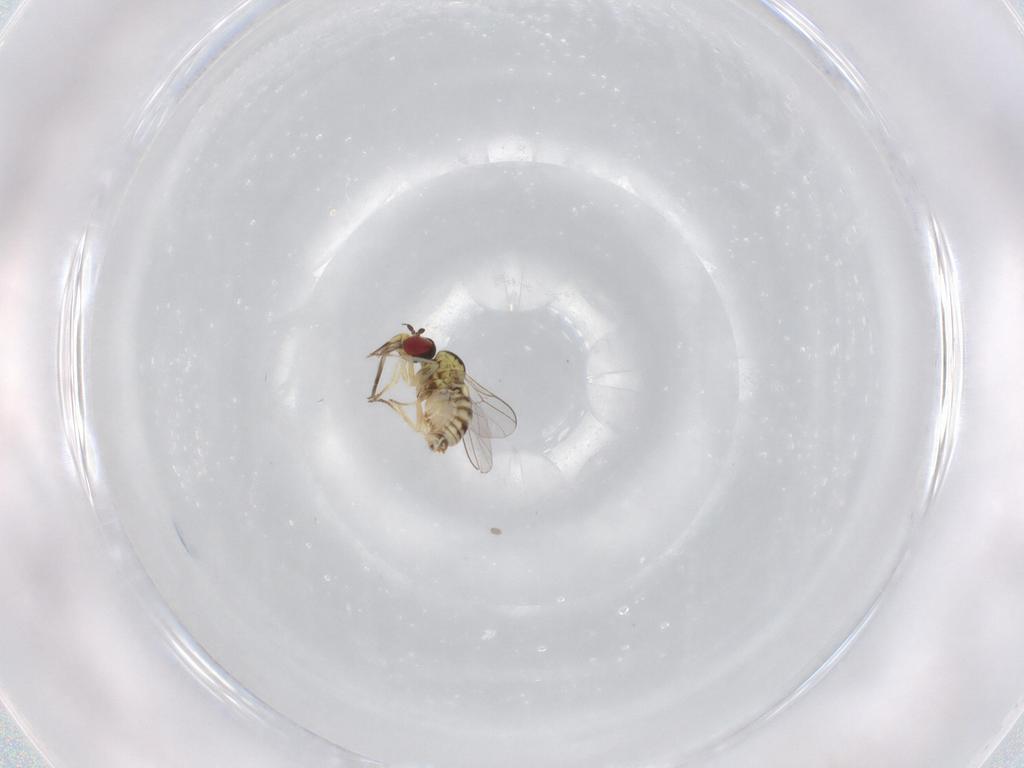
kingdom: Animalia
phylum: Arthropoda
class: Insecta
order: Diptera
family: Bombyliidae
